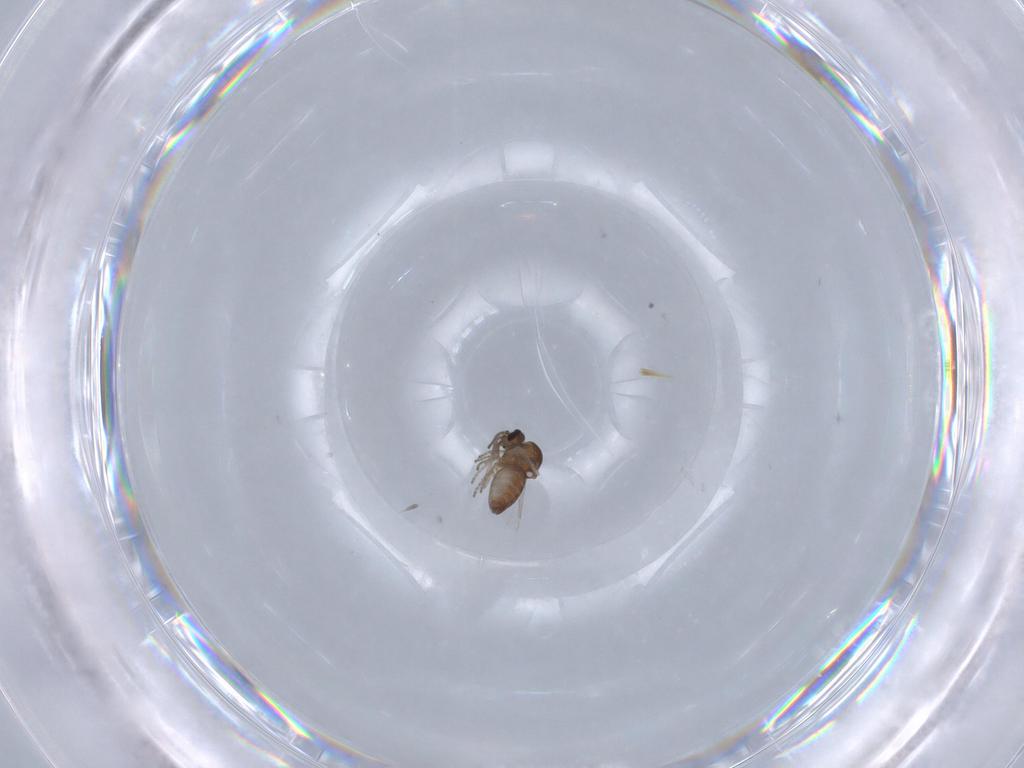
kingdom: Animalia
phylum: Arthropoda
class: Insecta
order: Diptera
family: Ceratopogonidae
